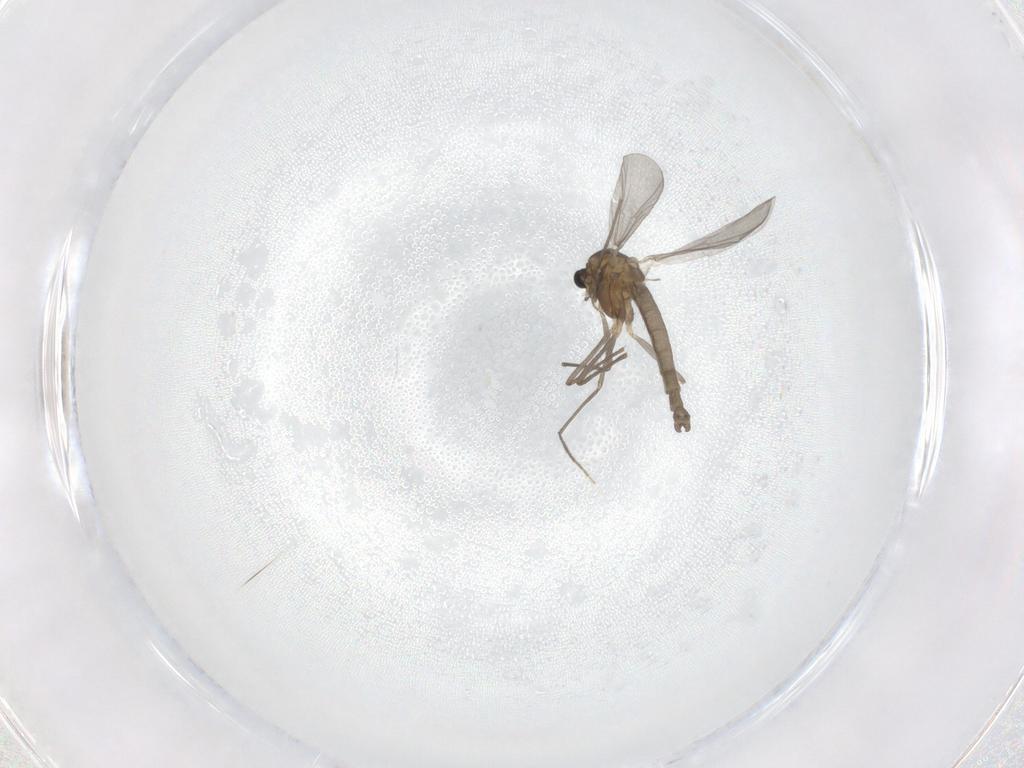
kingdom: Animalia
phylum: Arthropoda
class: Insecta
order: Diptera
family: Chironomidae
